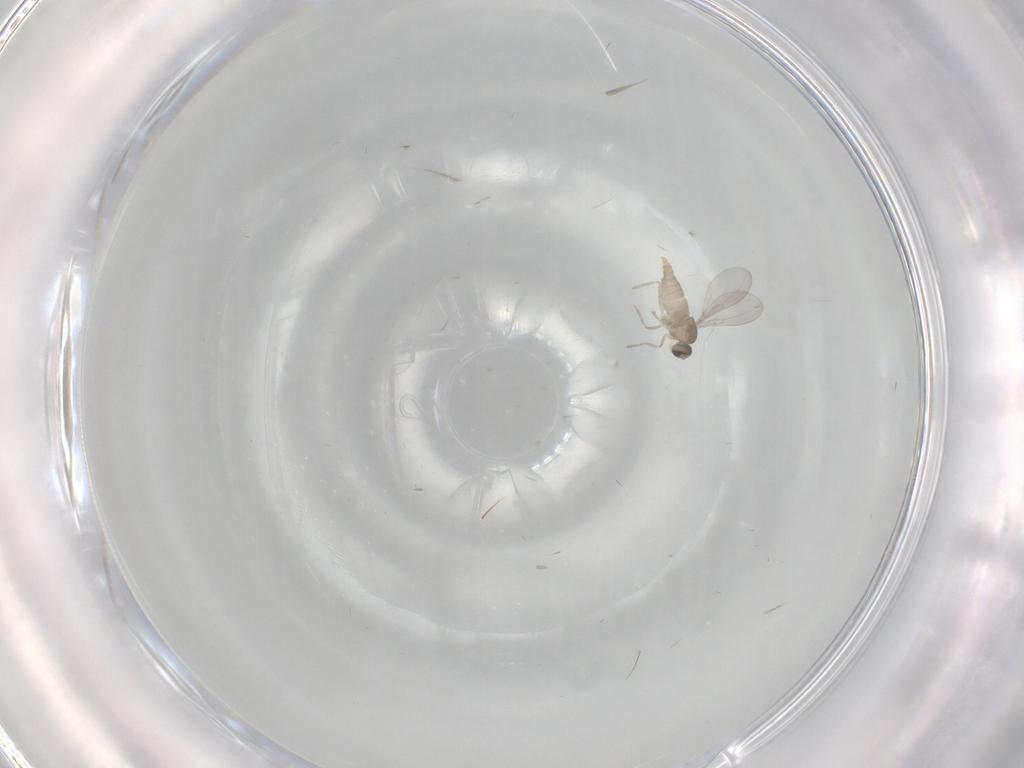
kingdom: Animalia
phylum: Arthropoda
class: Insecta
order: Diptera
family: Cecidomyiidae
